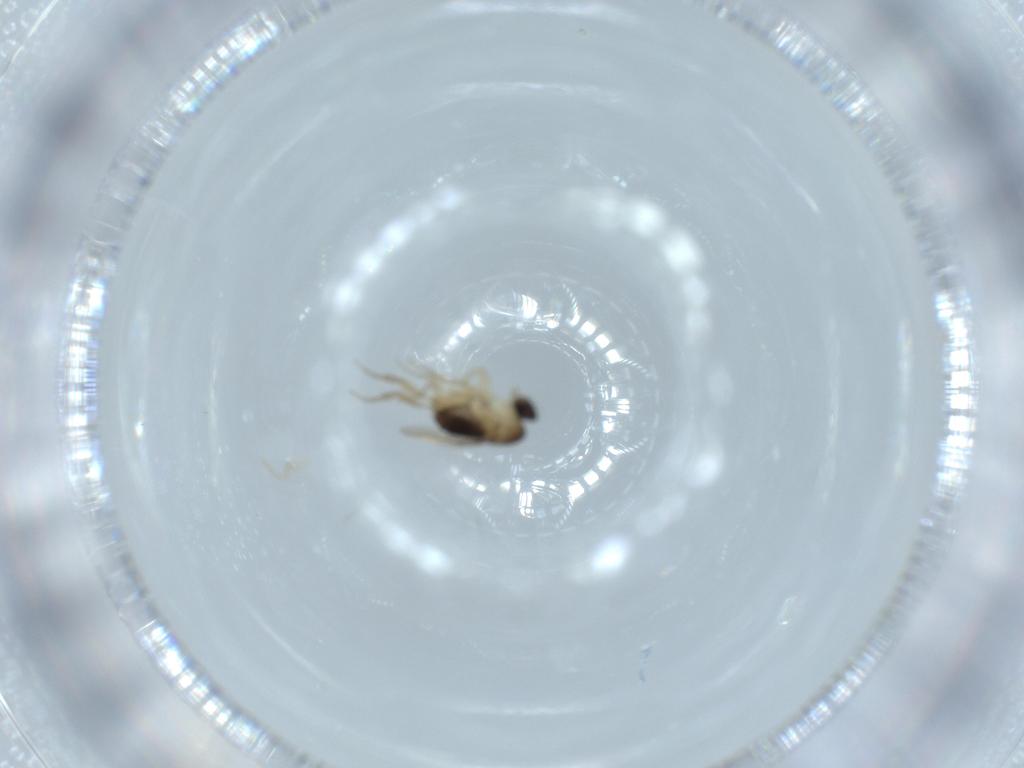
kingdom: Animalia
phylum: Arthropoda
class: Insecta
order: Diptera
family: Phoridae
